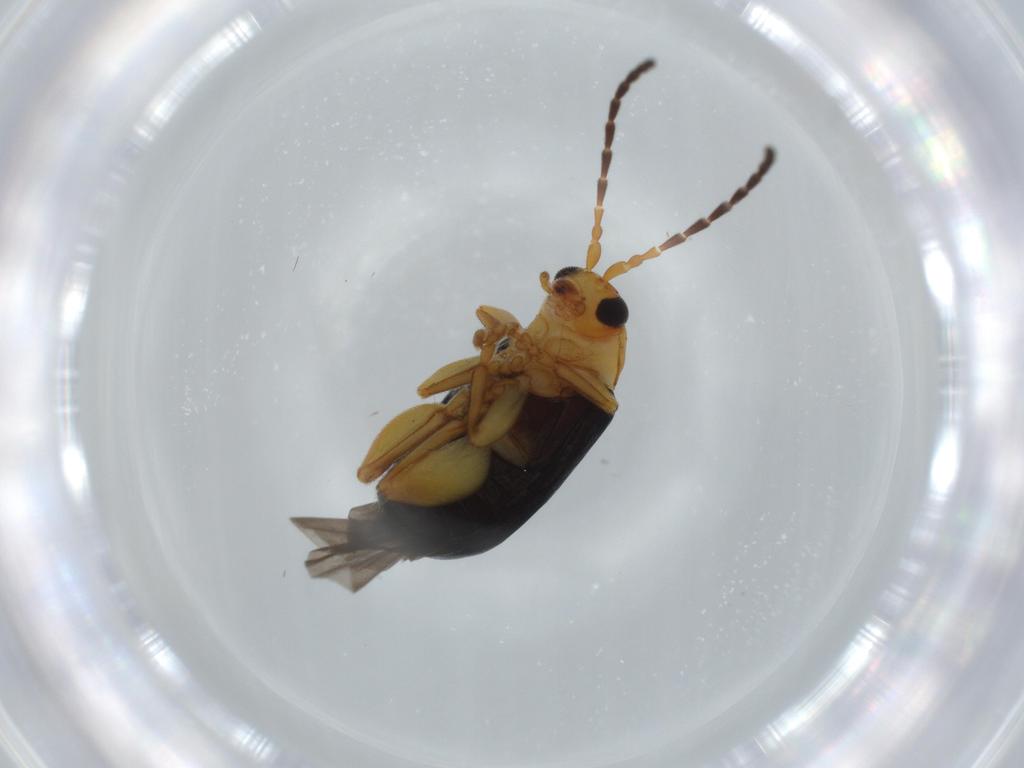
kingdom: Animalia
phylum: Arthropoda
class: Insecta
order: Coleoptera
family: Chrysomelidae
